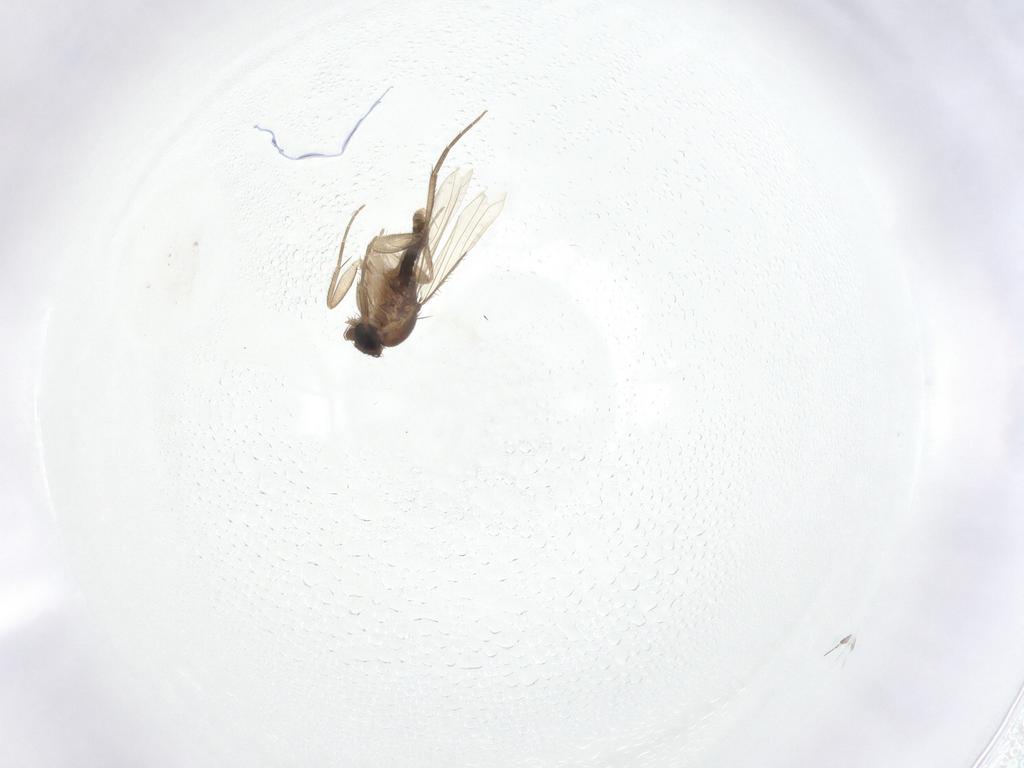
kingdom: Animalia
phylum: Arthropoda
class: Insecta
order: Diptera
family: Phoridae
